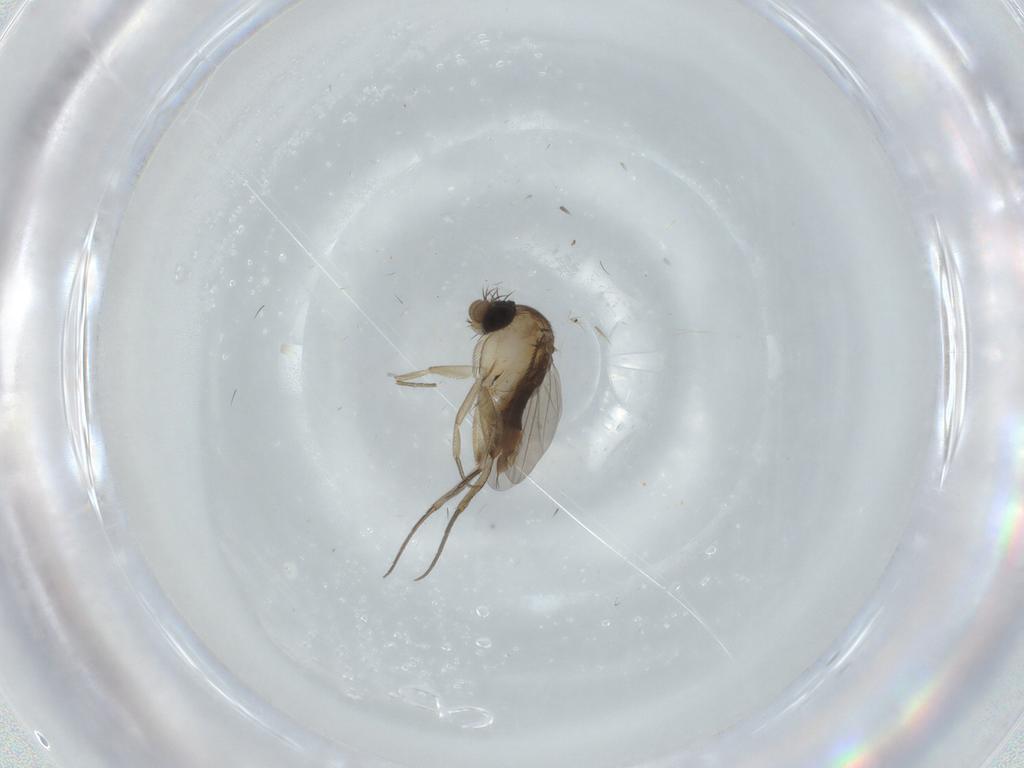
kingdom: Animalia
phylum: Arthropoda
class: Insecta
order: Diptera
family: Phoridae
